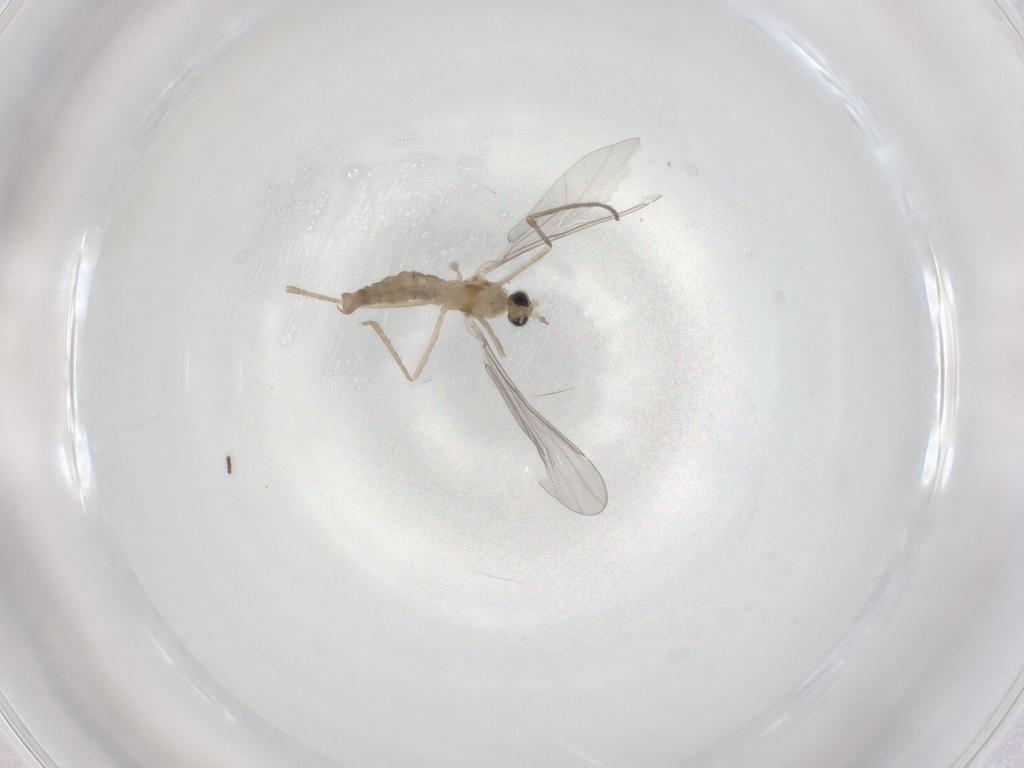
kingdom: Animalia
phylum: Arthropoda
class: Insecta
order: Diptera
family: Cecidomyiidae
